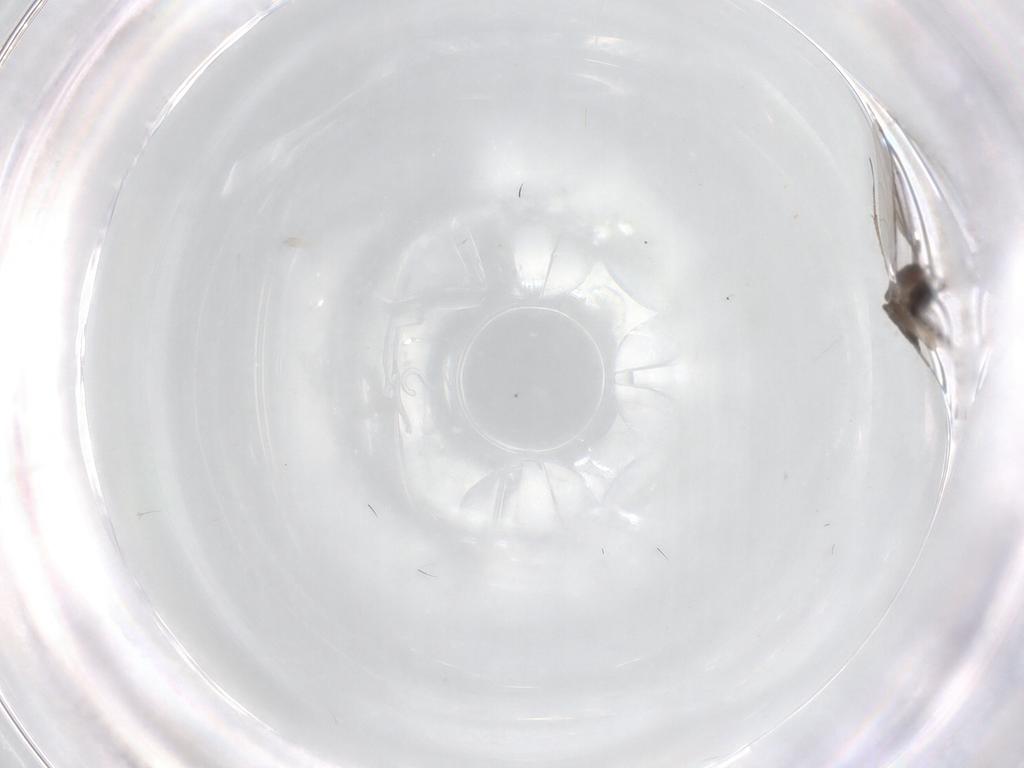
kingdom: Animalia
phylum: Arthropoda
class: Insecta
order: Diptera
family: Sciaridae
